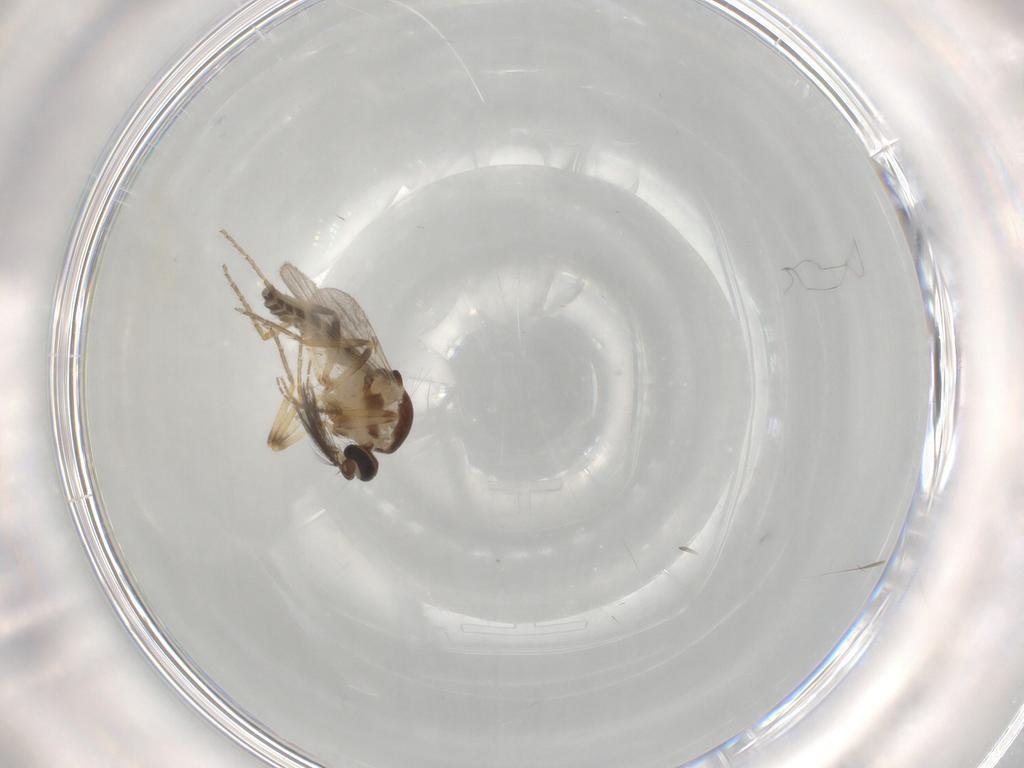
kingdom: Animalia
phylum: Arthropoda
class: Insecta
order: Diptera
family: Ceratopogonidae
